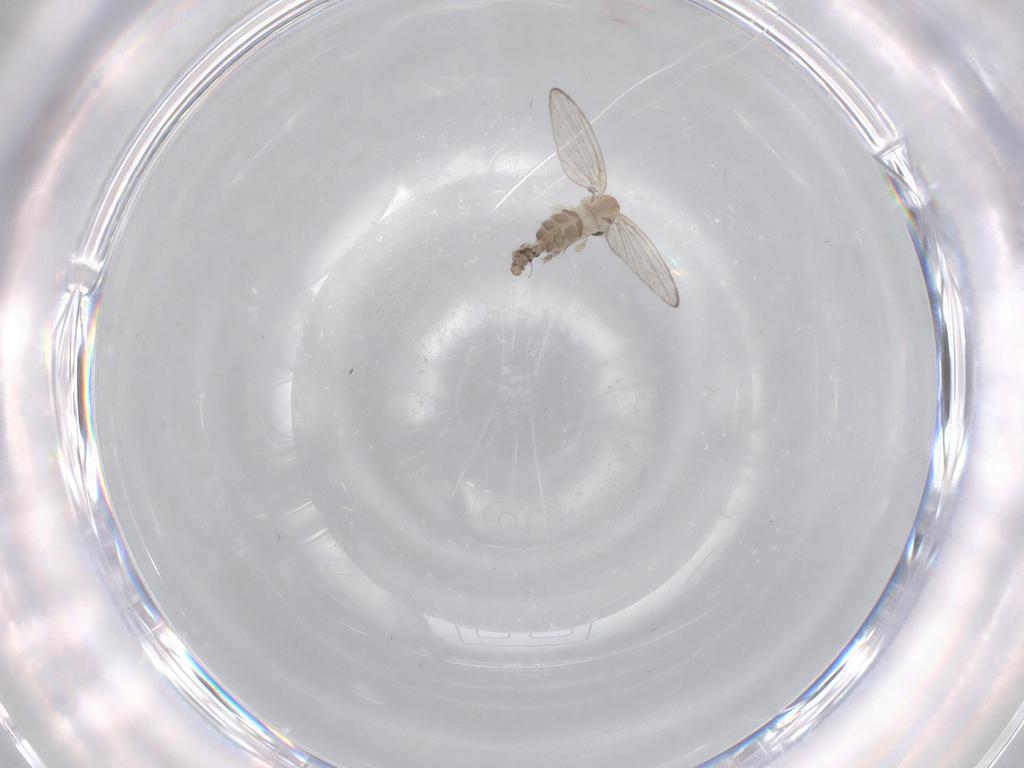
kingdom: Animalia
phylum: Arthropoda
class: Insecta
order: Diptera
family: Psychodidae
